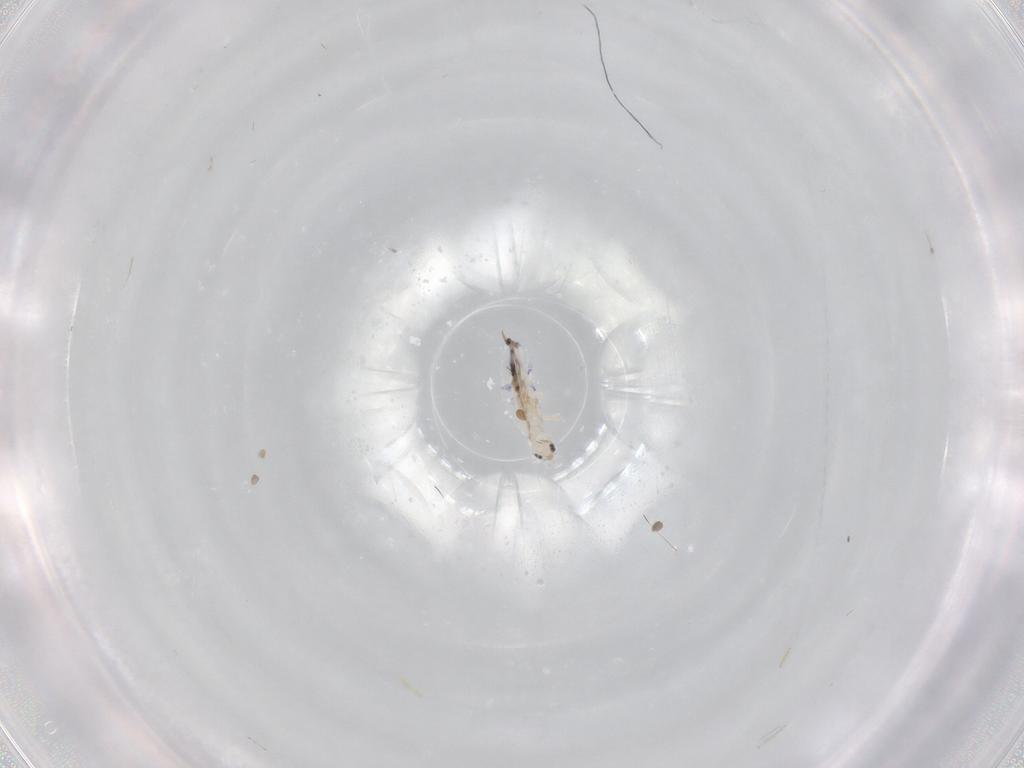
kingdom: Animalia
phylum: Arthropoda
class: Collembola
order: Entomobryomorpha
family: Entomobryidae
